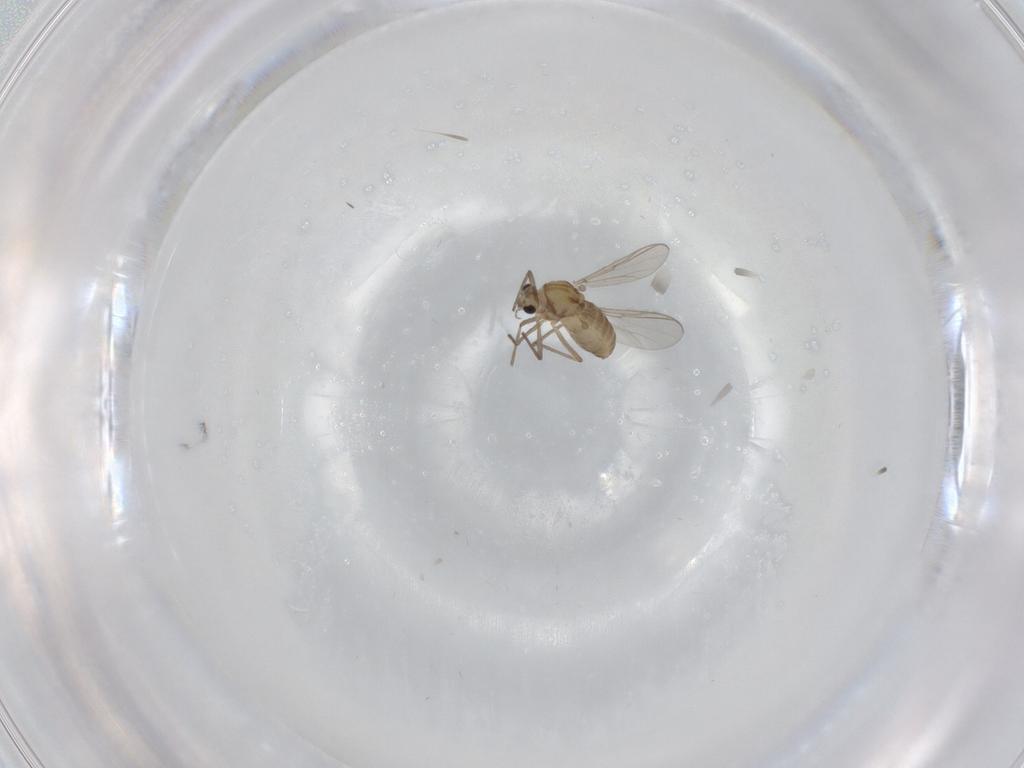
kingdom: Animalia
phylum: Arthropoda
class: Insecta
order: Diptera
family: Chironomidae
